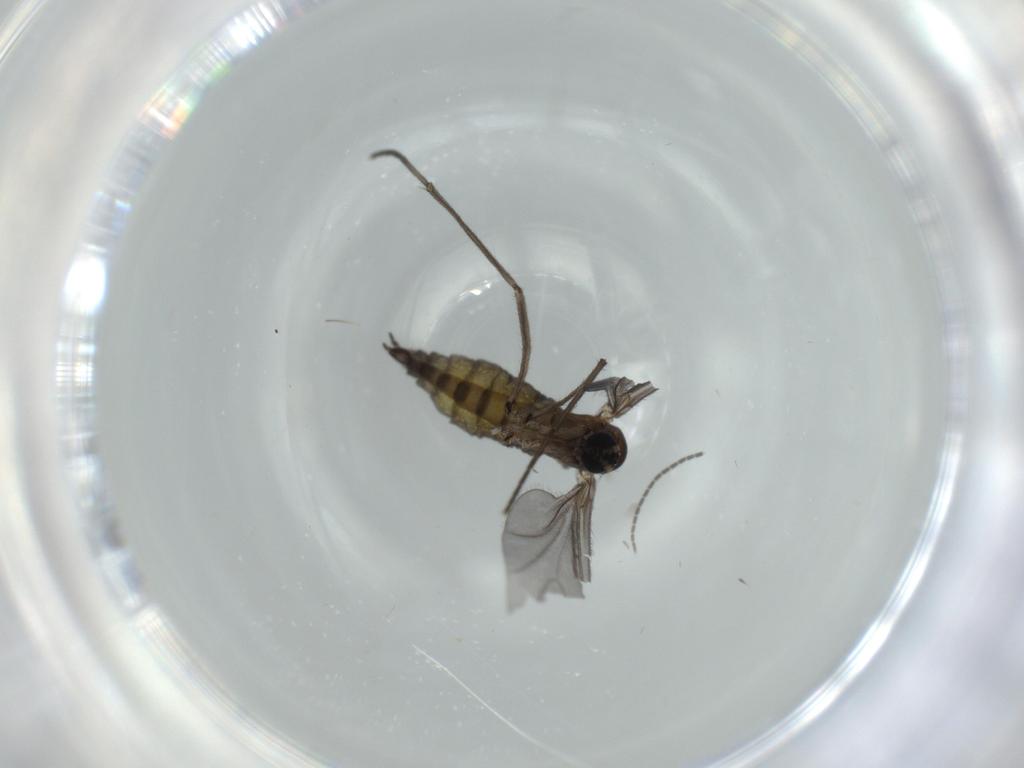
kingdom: Animalia
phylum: Arthropoda
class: Insecta
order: Diptera
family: Sciaridae
